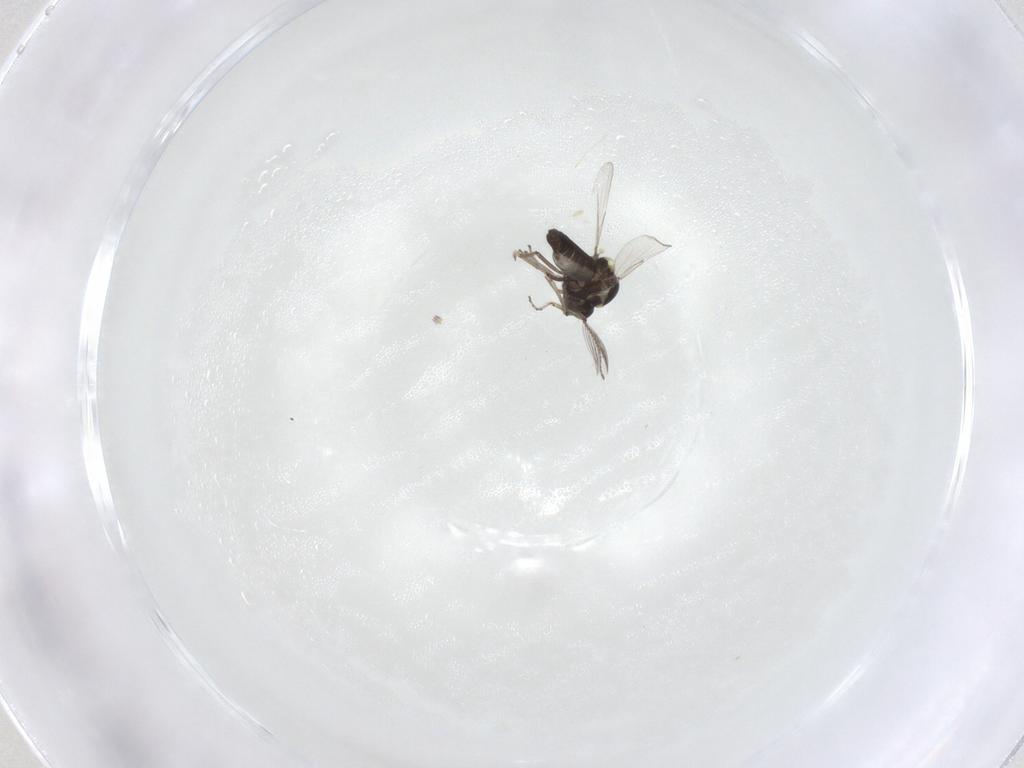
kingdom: Animalia
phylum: Arthropoda
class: Insecta
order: Diptera
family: Ceratopogonidae
